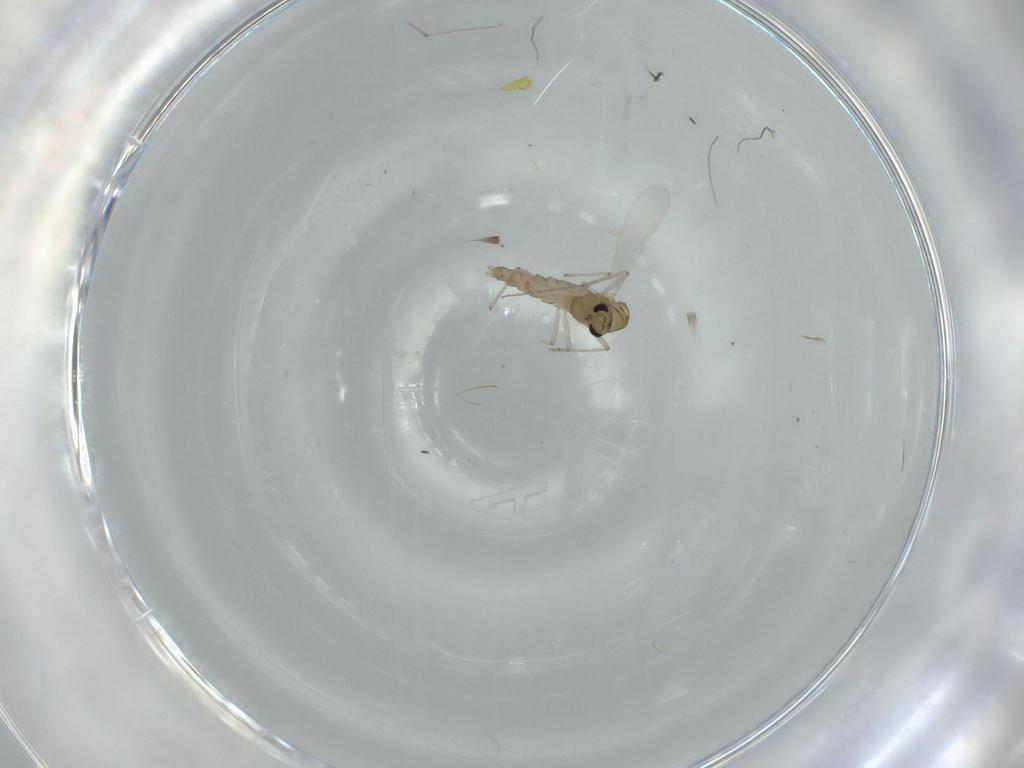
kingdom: Animalia
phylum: Arthropoda
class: Insecta
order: Diptera
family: Chironomidae
